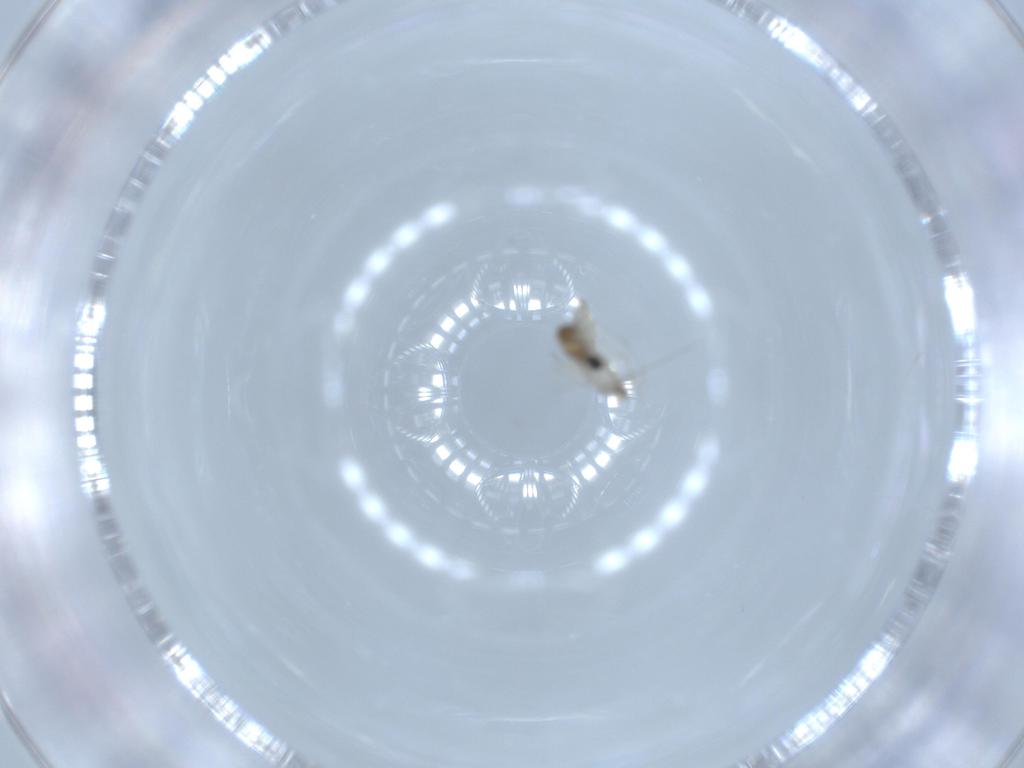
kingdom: Animalia
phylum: Arthropoda
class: Insecta
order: Diptera
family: Cecidomyiidae
